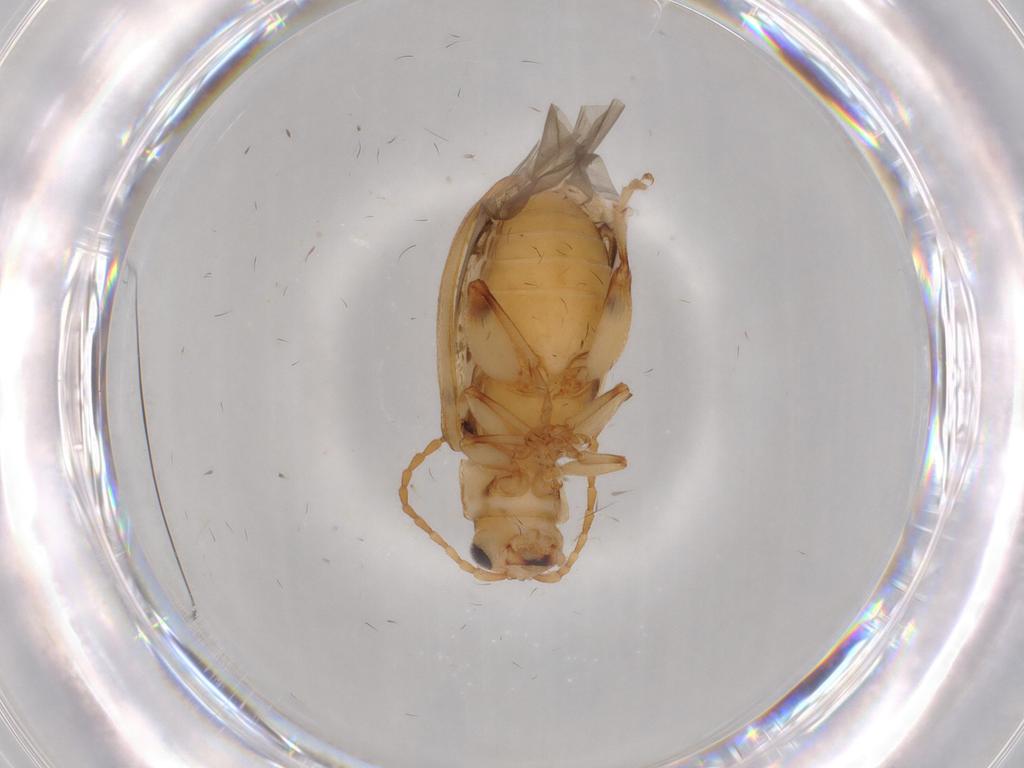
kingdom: Animalia
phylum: Arthropoda
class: Insecta
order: Coleoptera
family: Chrysomelidae
